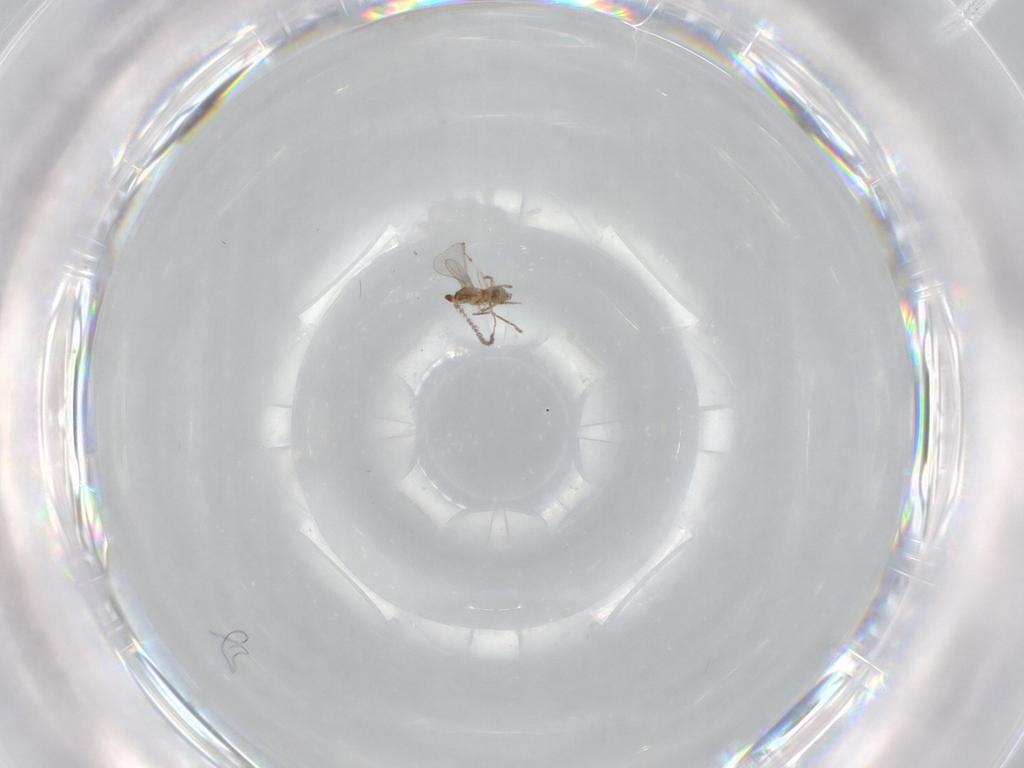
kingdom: Animalia
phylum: Arthropoda
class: Insecta
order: Diptera
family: Cecidomyiidae
